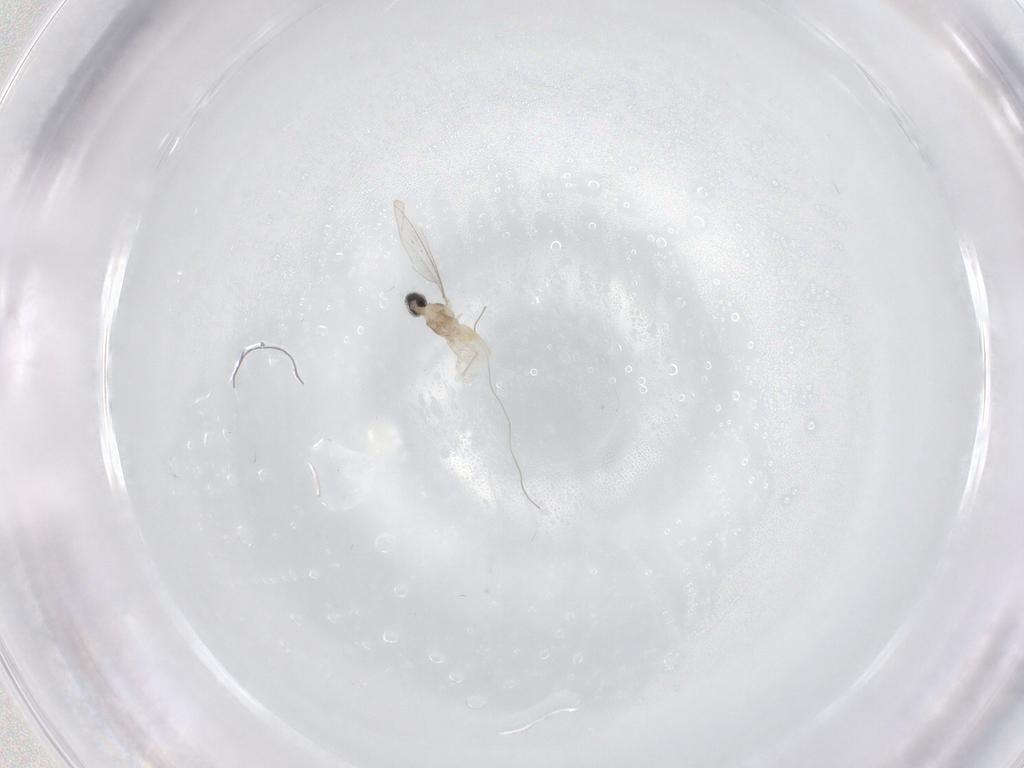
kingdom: Animalia
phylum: Arthropoda
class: Insecta
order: Diptera
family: Cecidomyiidae
